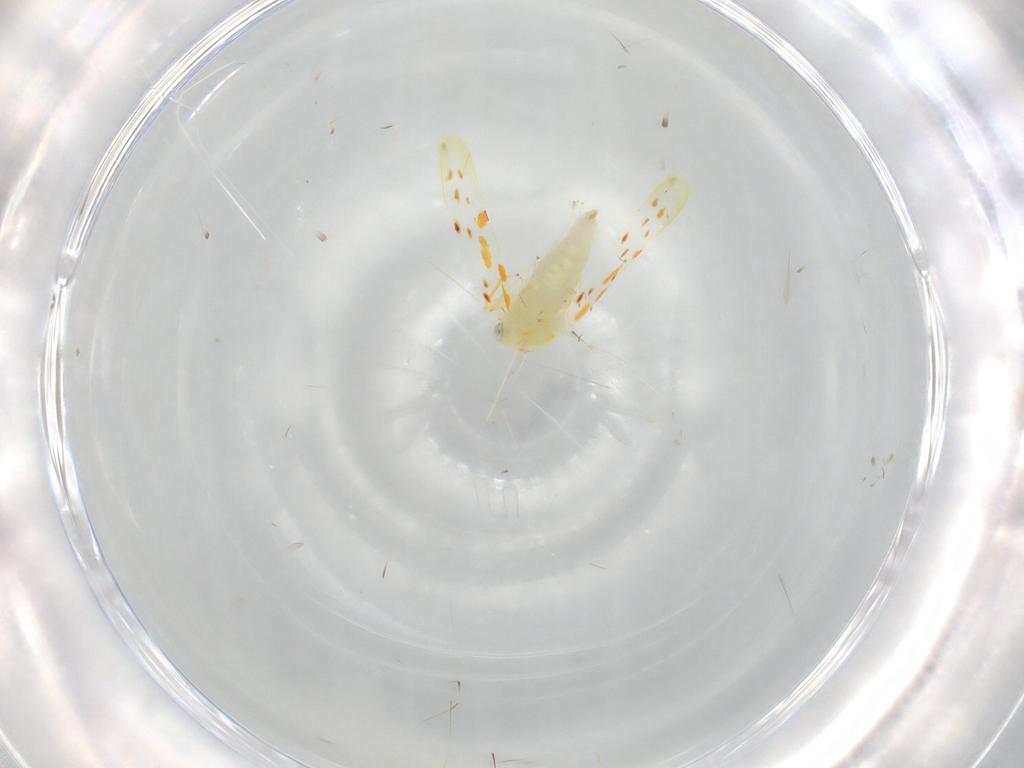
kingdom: Animalia
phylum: Arthropoda
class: Insecta
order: Hemiptera
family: Cicadellidae
